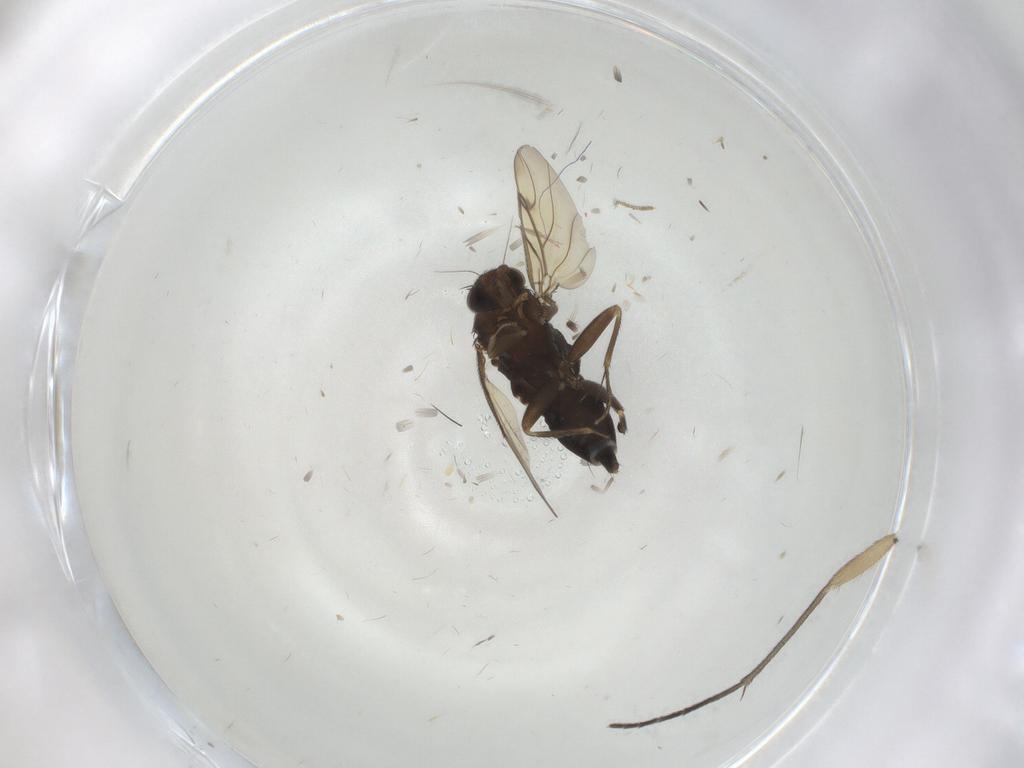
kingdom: Animalia
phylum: Arthropoda
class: Insecta
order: Diptera
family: Phoridae
